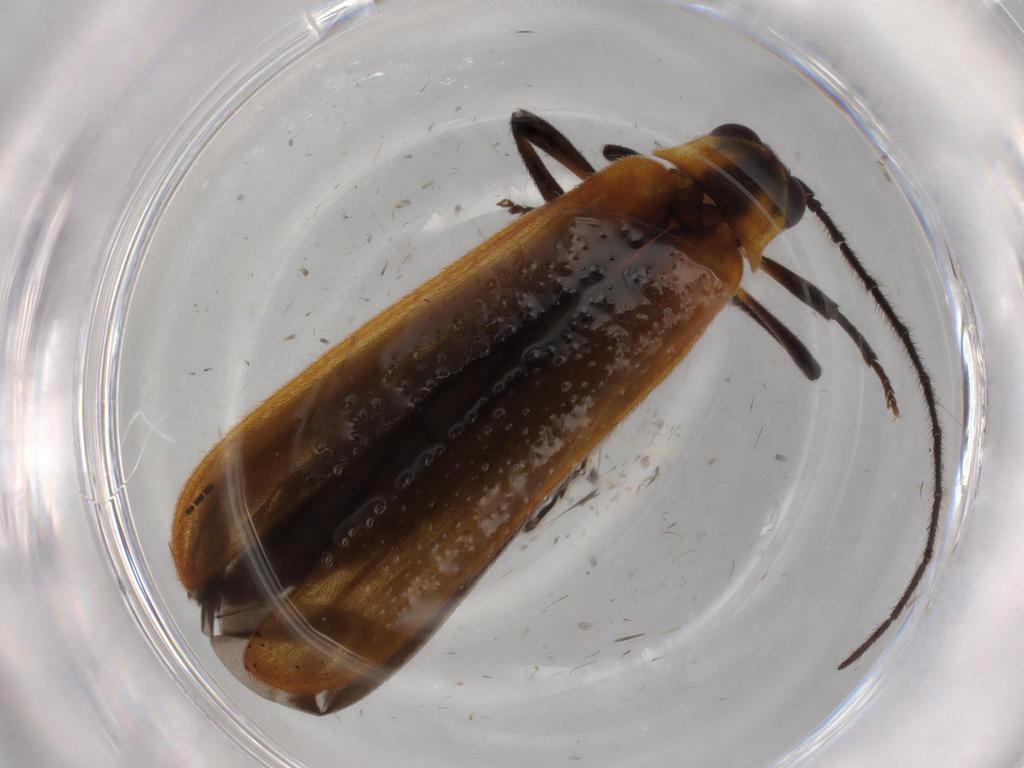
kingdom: Animalia
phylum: Arthropoda
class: Insecta
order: Coleoptera
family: Lycidae
